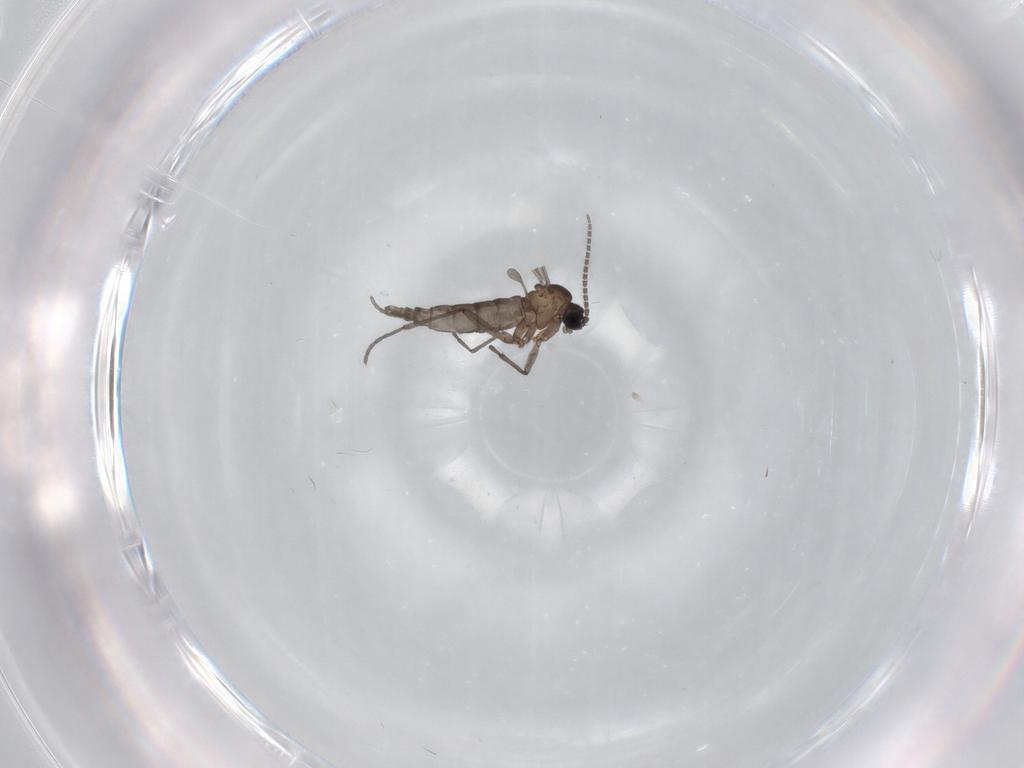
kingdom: Animalia
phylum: Arthropoda
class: Insecta
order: Diptera
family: Sciaridae
